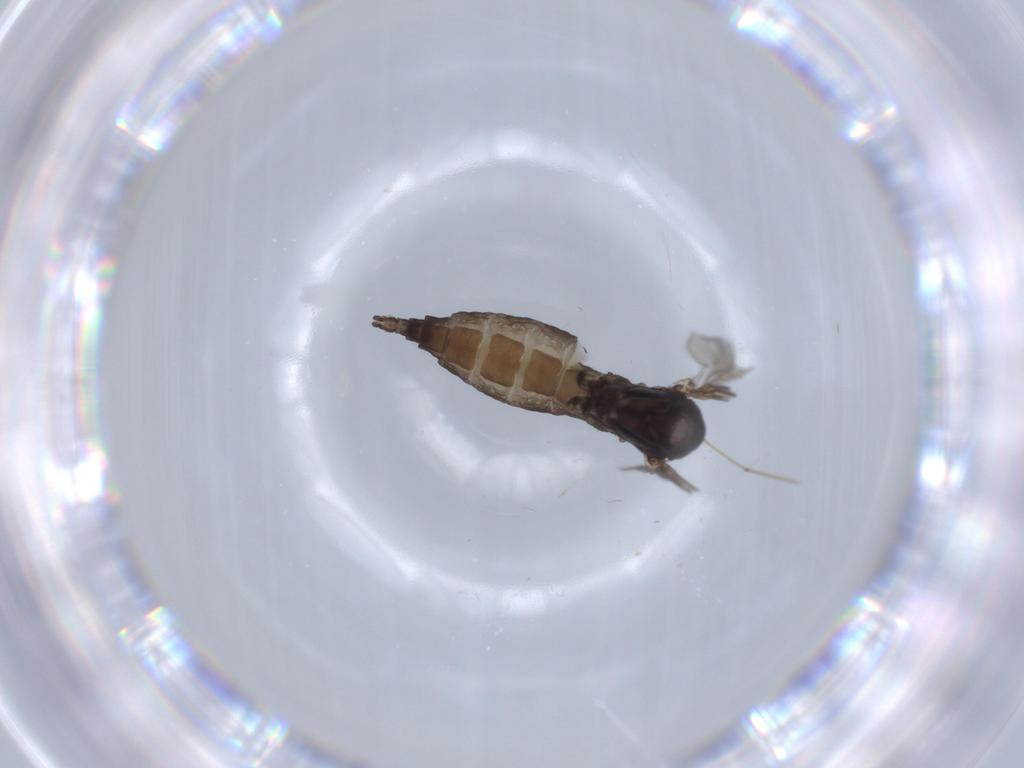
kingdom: Animalia
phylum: Arthropoda
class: Insecta
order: Diptera
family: Sciaridae
